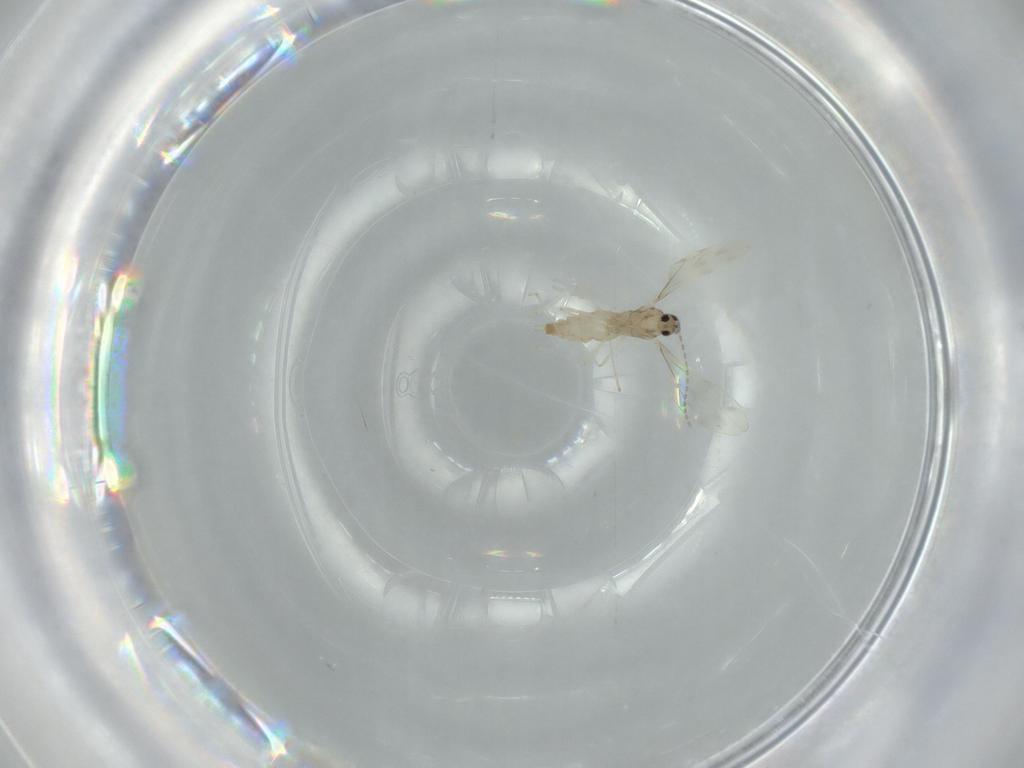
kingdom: Animalia
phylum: Arthropoda
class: Insecta
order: Diptera
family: Cecidomyiidae
